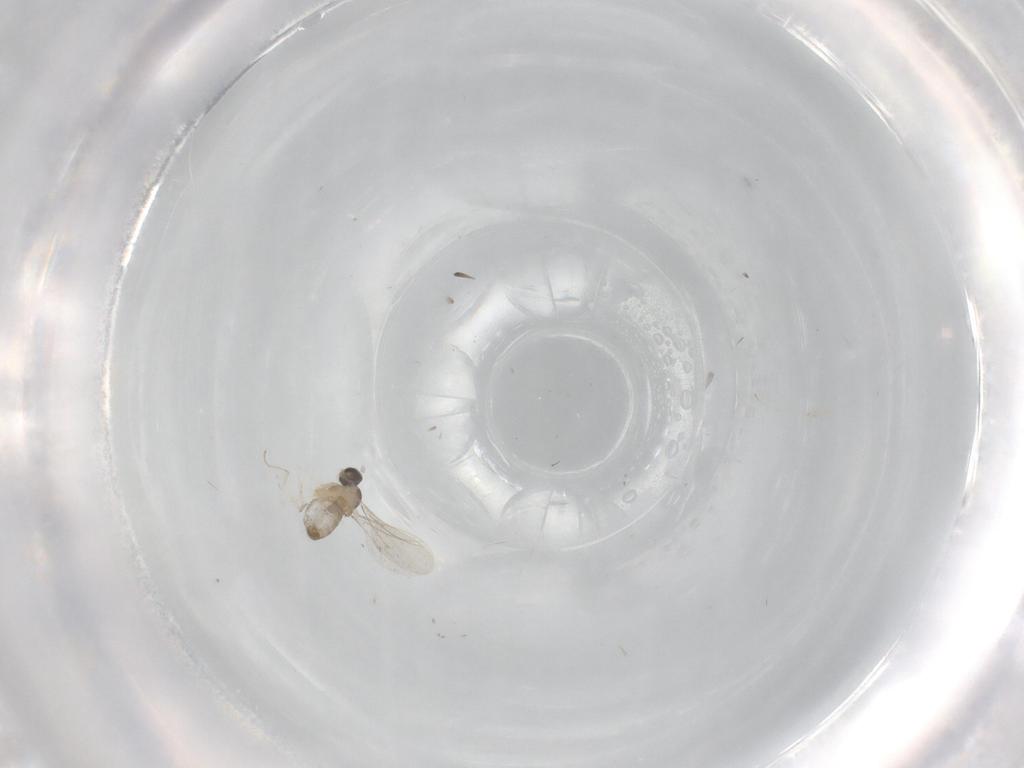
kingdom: Animalia
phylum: Arthropoda
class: Insecta
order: Diptera
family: Cecidomyiidae
